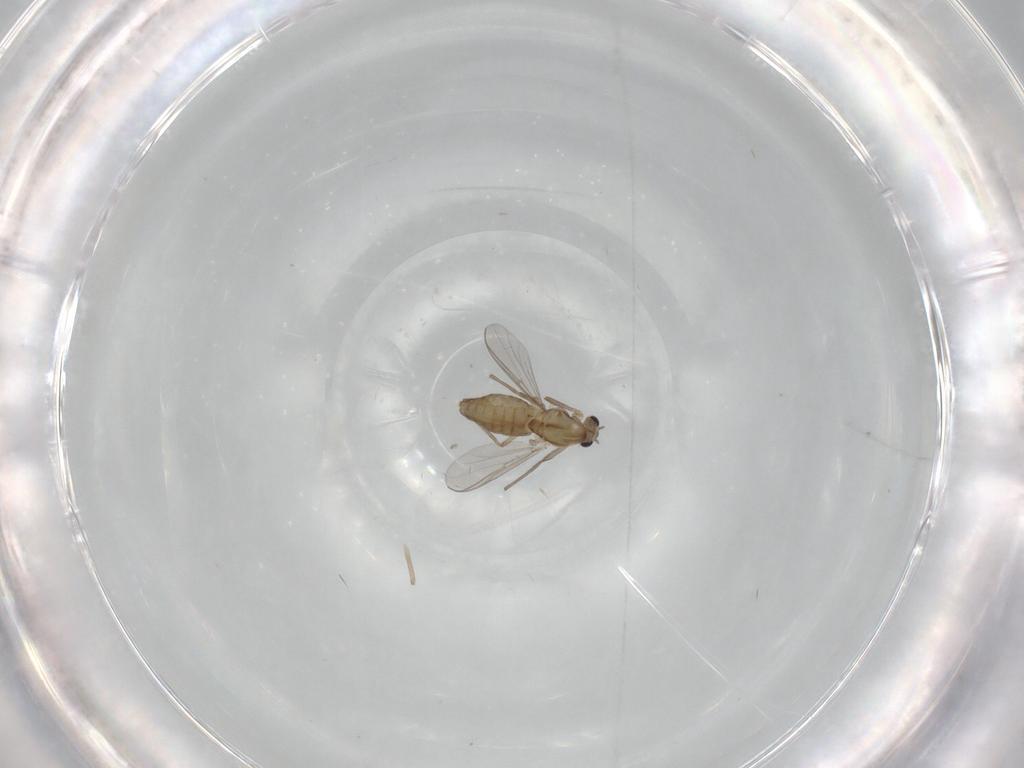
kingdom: Animalia
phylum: Arthropoda
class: Insecta
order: Diptera
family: Chironomidae
